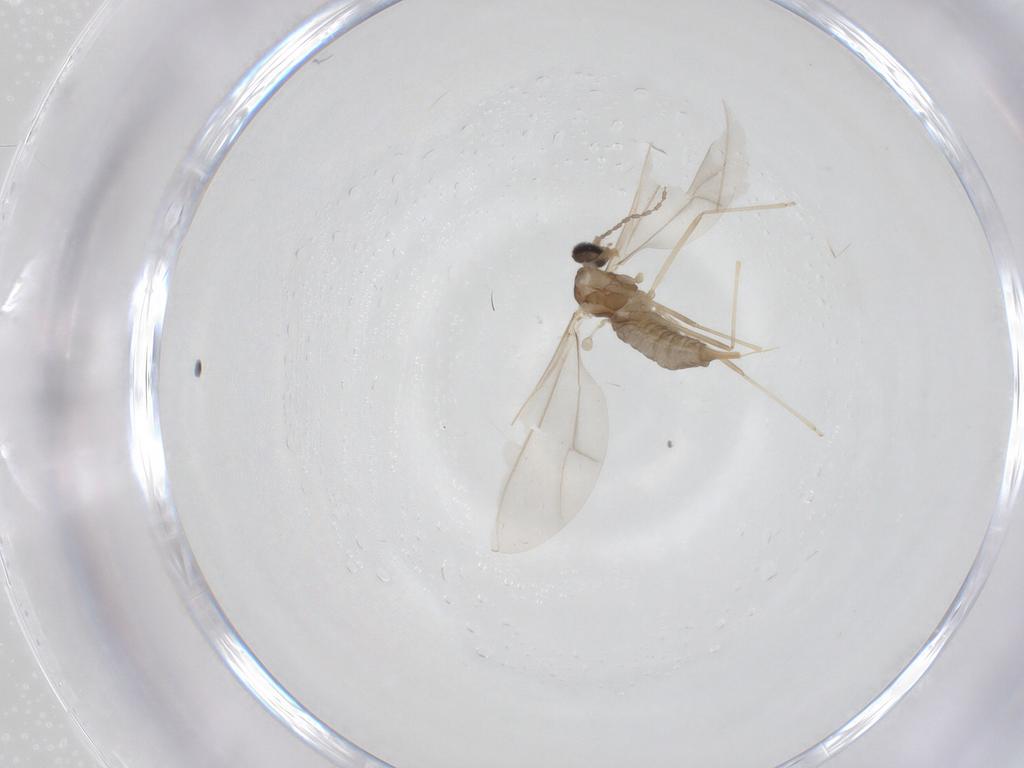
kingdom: Animalia
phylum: Arthropoda
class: Insecta
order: Diptera
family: Cecidomyiidae
